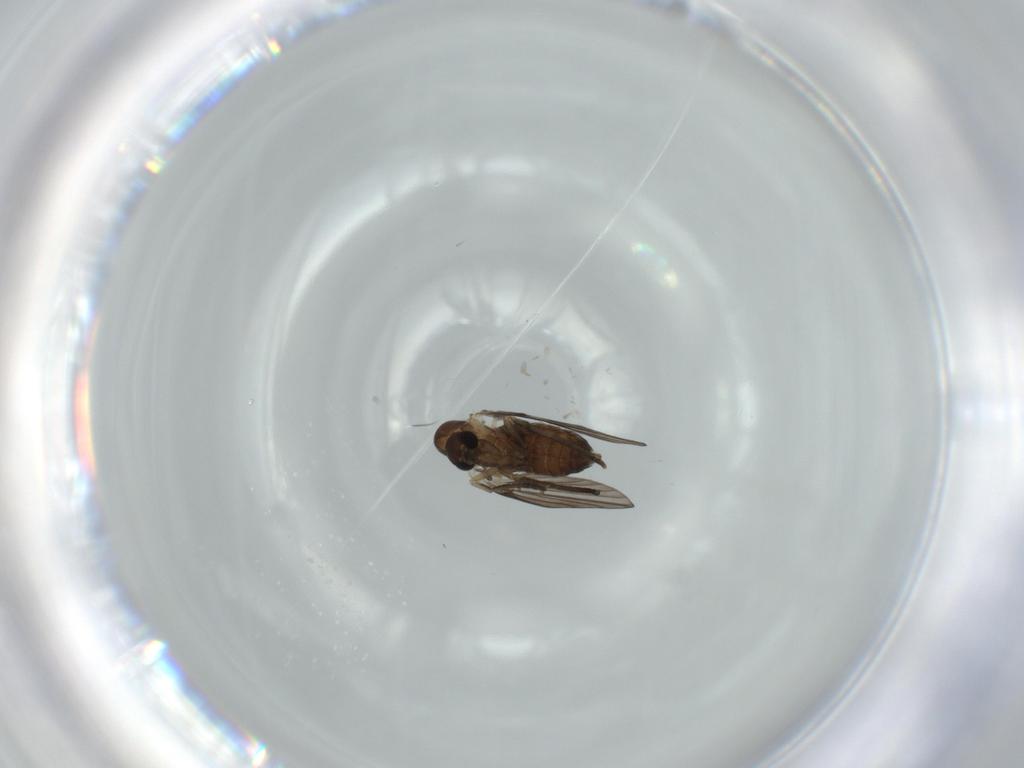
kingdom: Animalia
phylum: Arthropoda
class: Insecta
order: Diptera
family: Psychodidae
